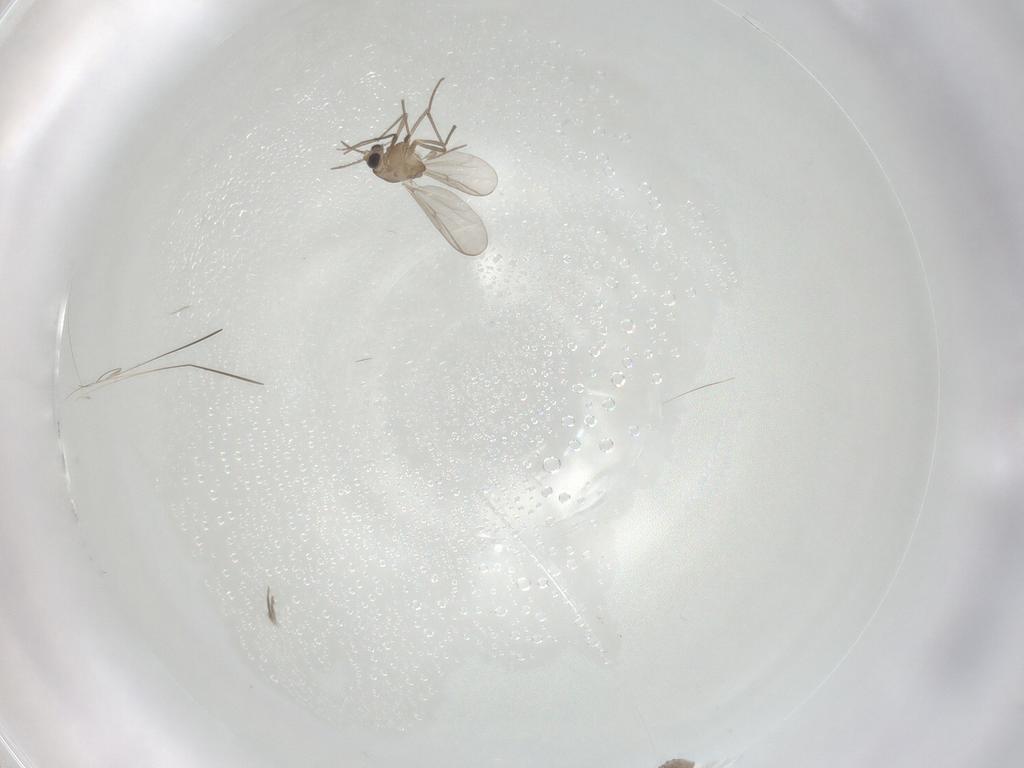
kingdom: Animalia
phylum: Arthropoda
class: Insecta
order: Diptera
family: Chironomidae
